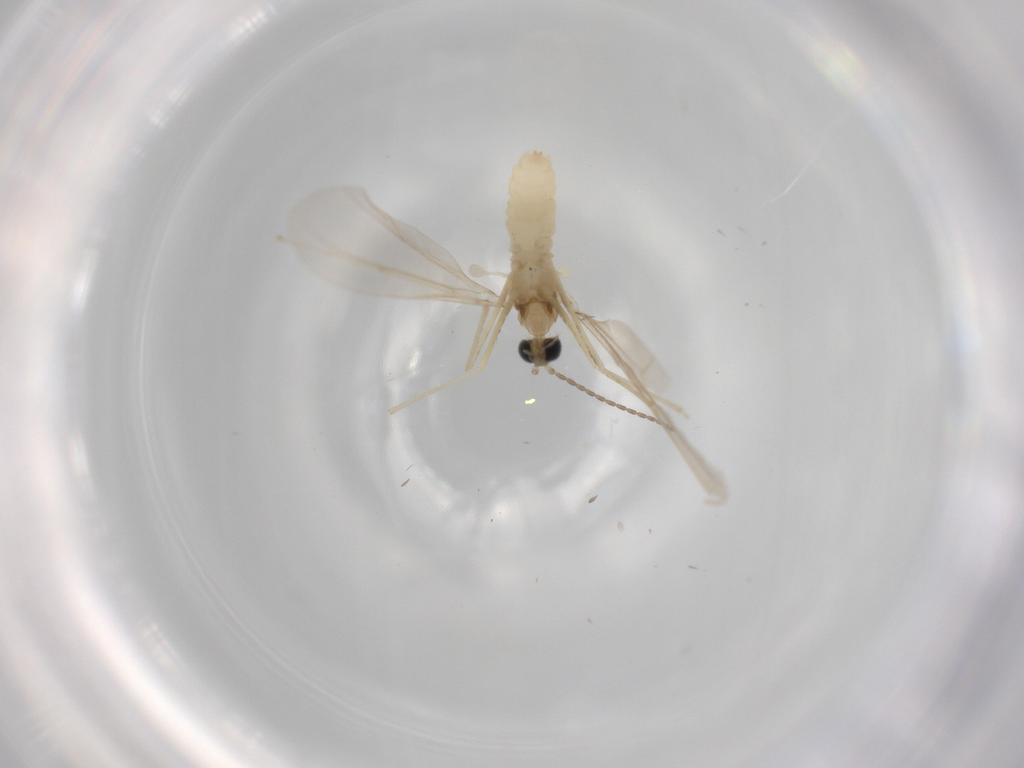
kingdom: Animalia
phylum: Arthropoda
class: Insecta
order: Diptera
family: Cecidomyiidae
